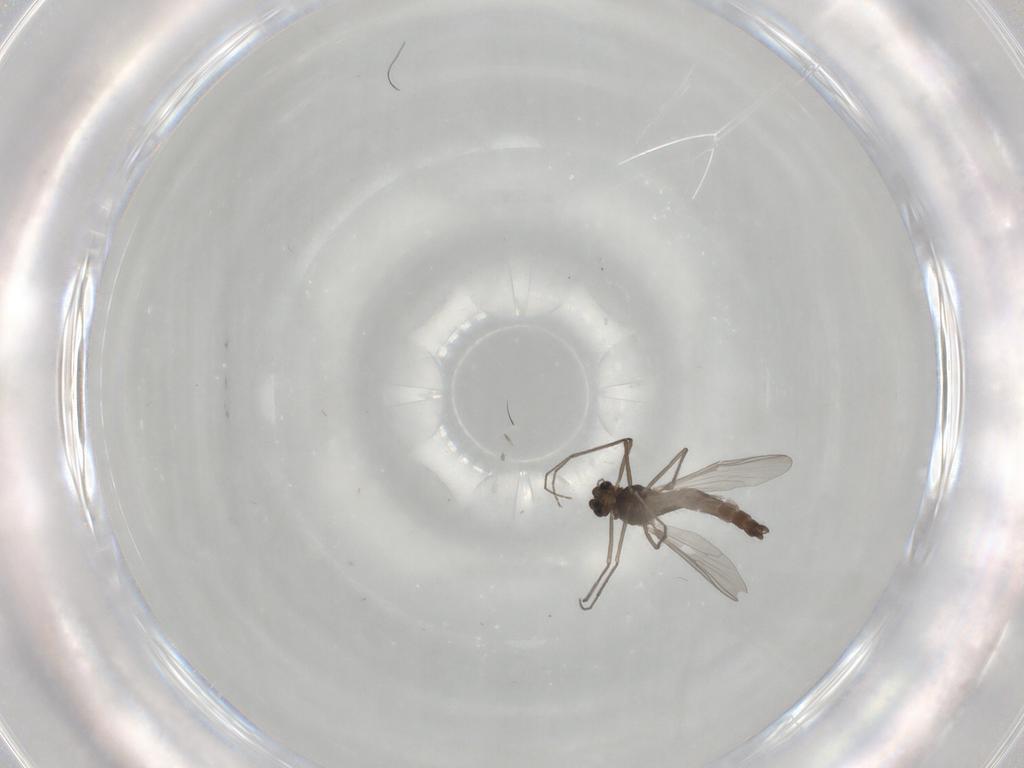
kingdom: Animalia
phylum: Arthropoda
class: Insecta
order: Diptera
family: Chironomidae
